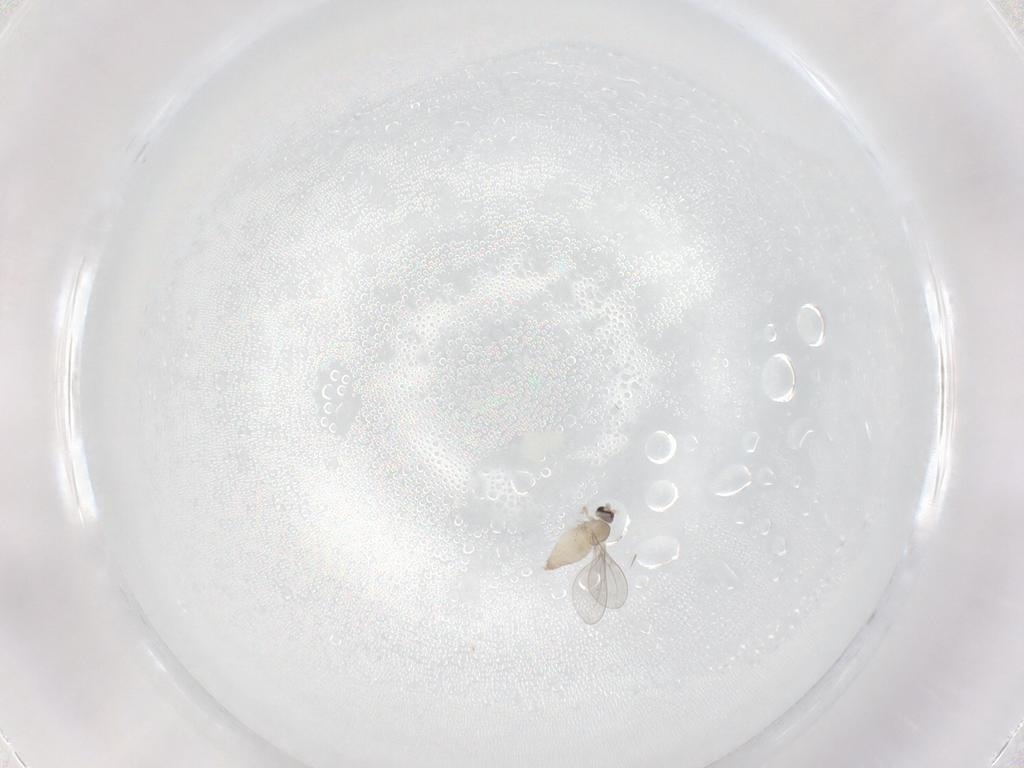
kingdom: Animalia
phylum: Arthropoda
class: Insecta
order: Diptera
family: Cecidomyiidae
